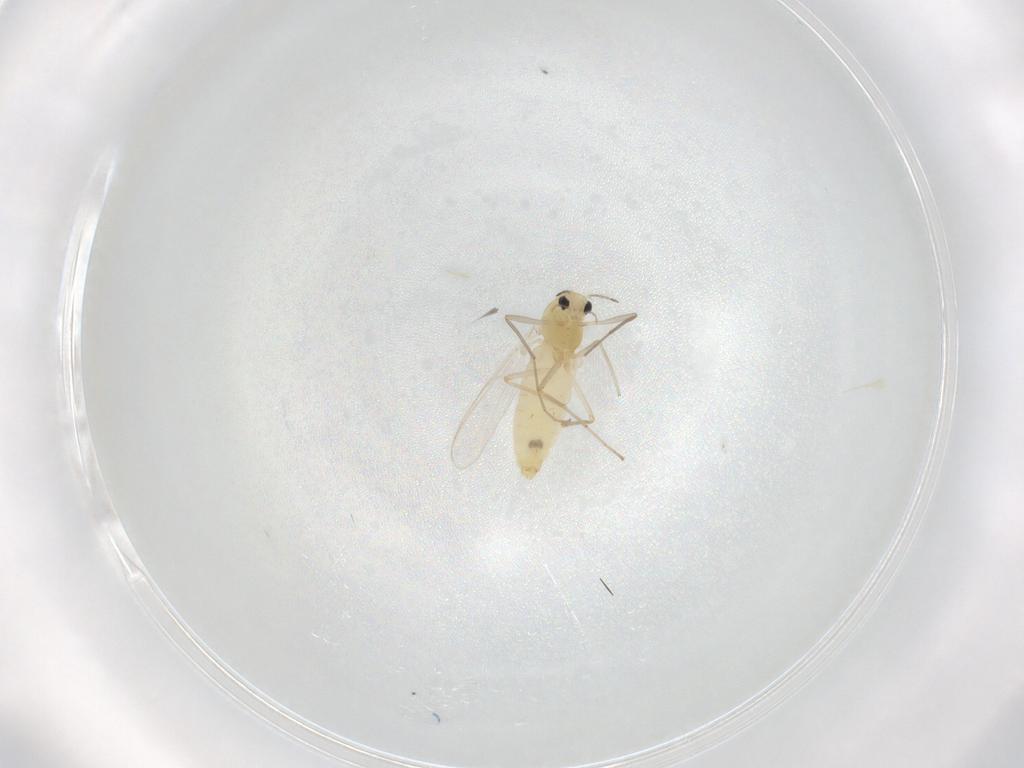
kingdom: Animalia
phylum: Arthropoda
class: Insecta
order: Diptera
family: Chironomidae
